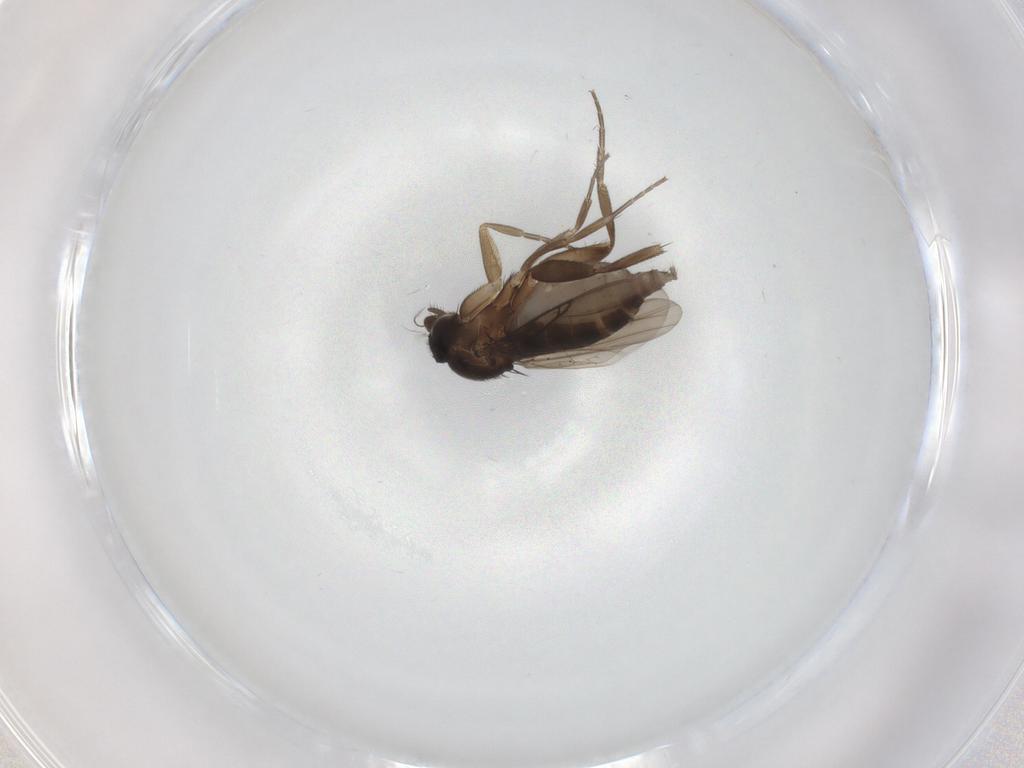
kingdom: Animalia
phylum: Arthropoda
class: Insecta
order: Diptera
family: Phoridae
